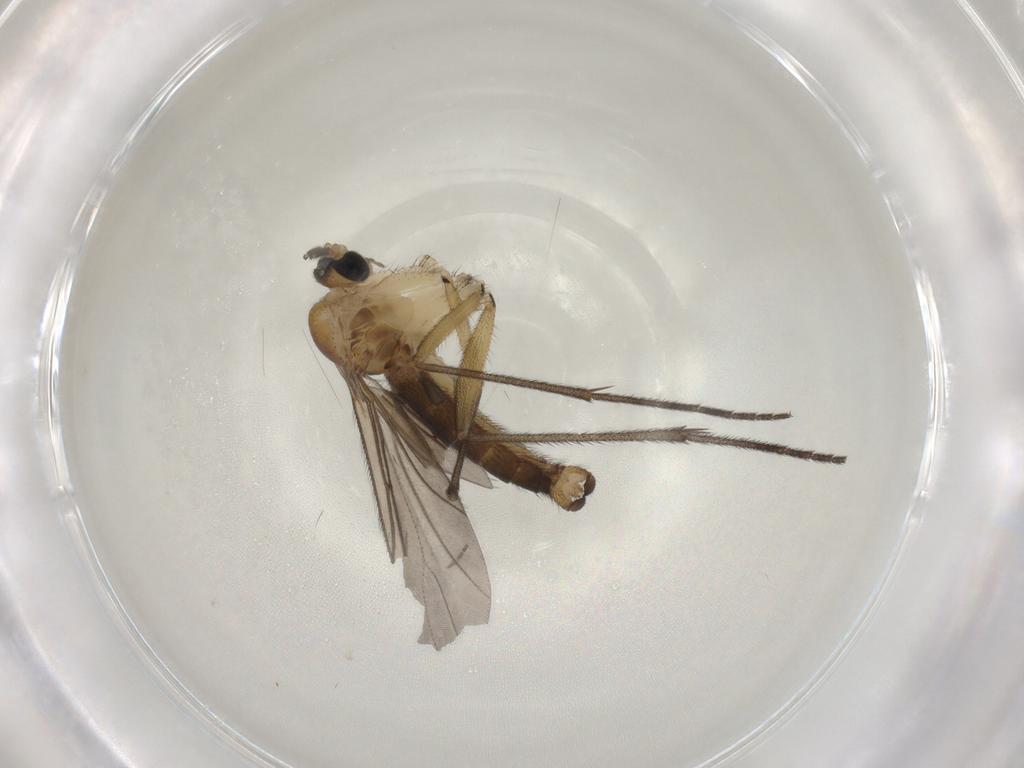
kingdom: Animalia
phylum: Arthropoda
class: Insecta
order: Diptera
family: Sciaridae
